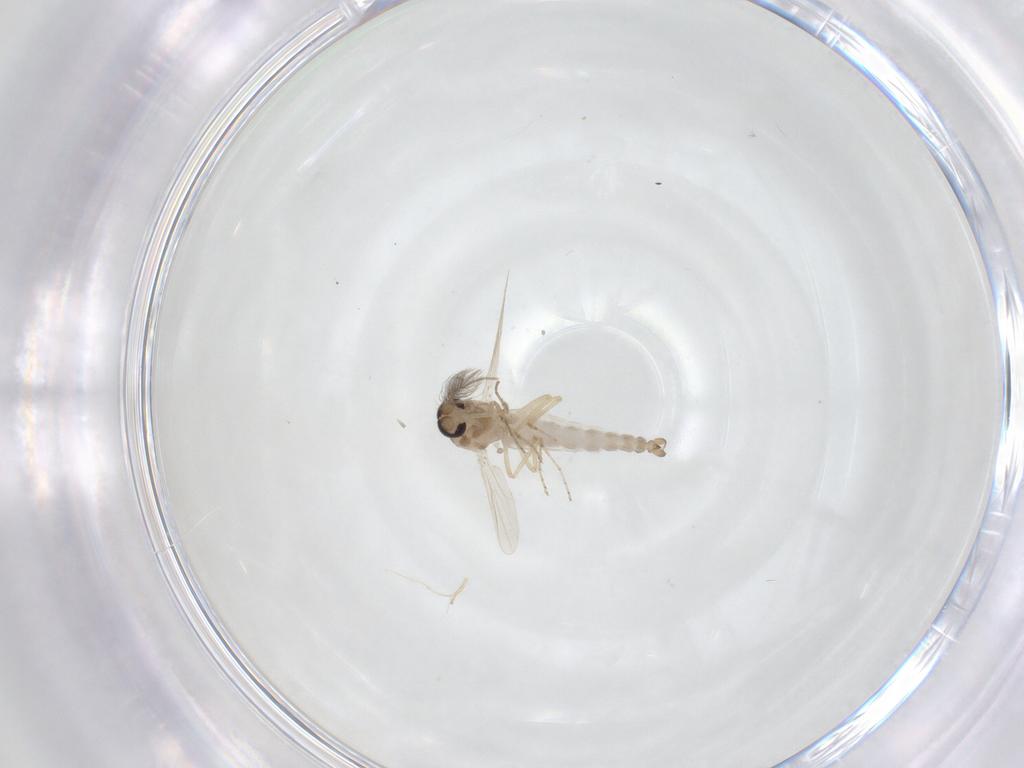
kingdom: Animalia
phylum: Arthropoda
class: Insecta
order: Diptera
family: Ceratopogonidae
